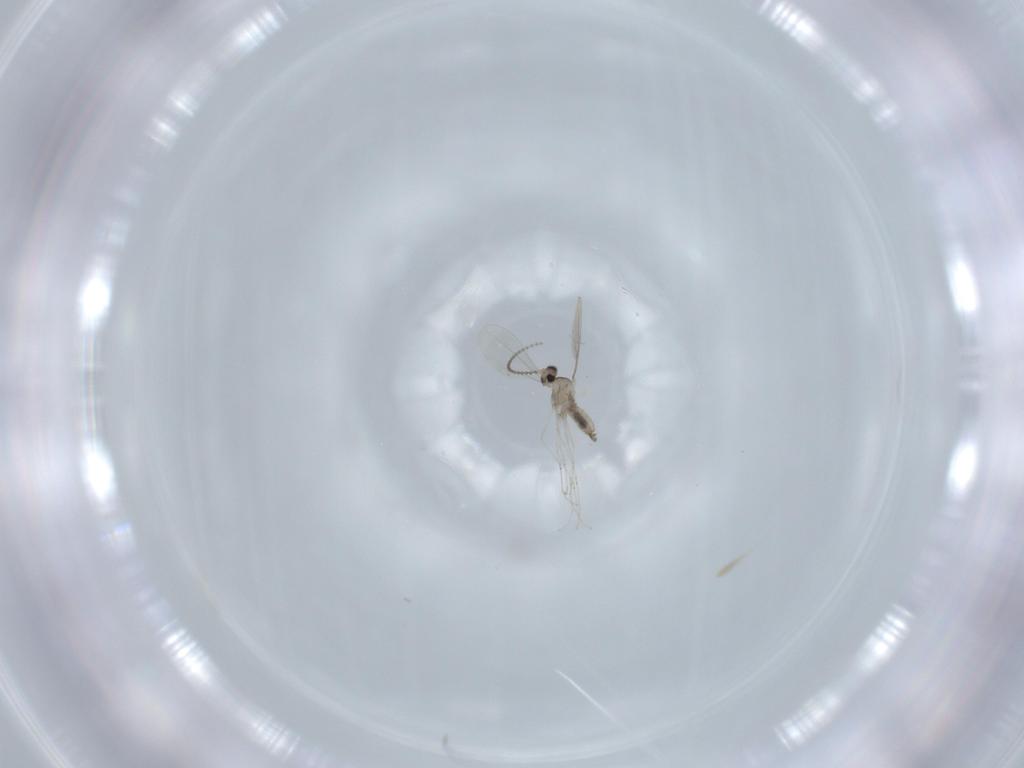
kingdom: Animalia
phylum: Arthropoda
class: Insecta
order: Diptera
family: Cecidomyiidae
